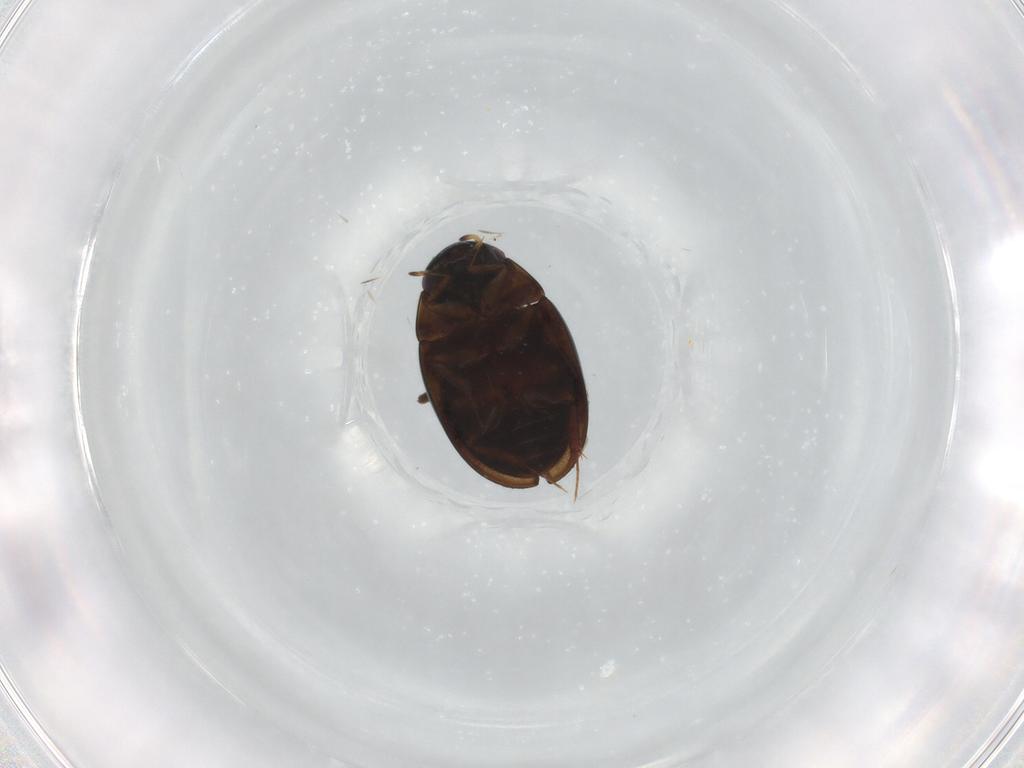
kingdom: Animalia
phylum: Arthropoda
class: Insecta
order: Coleoptera
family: Hydrophilidae
